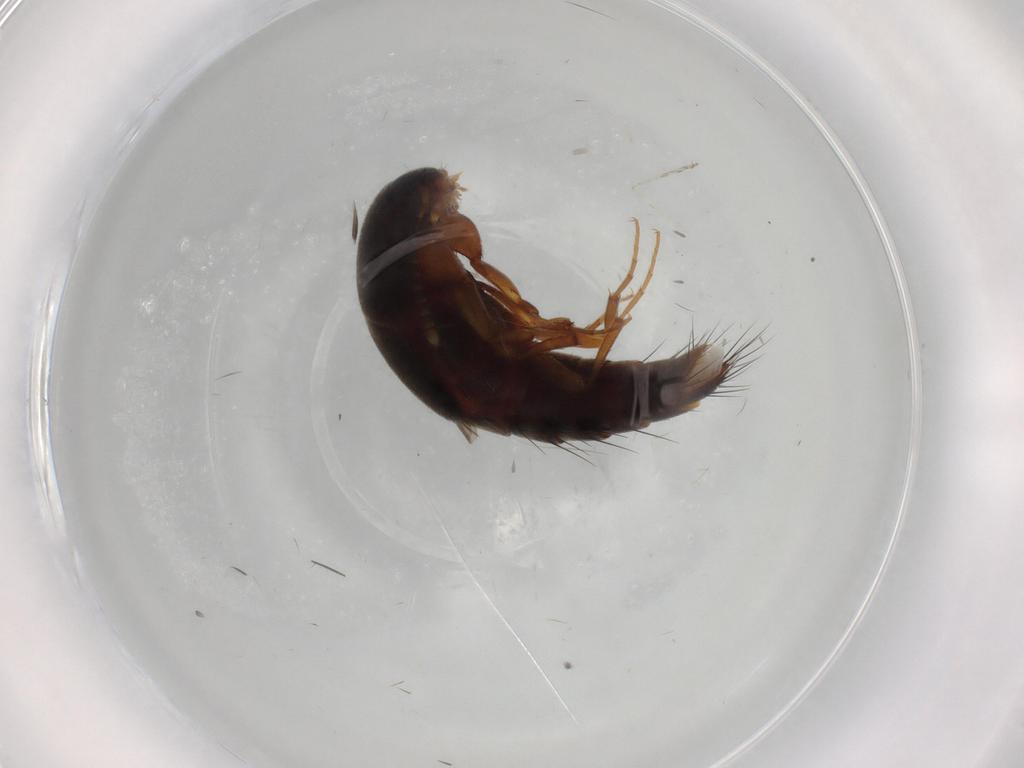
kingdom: Animalia
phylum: Arthropoda
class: Insecta
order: Coleoptera
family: Staphylinidae
